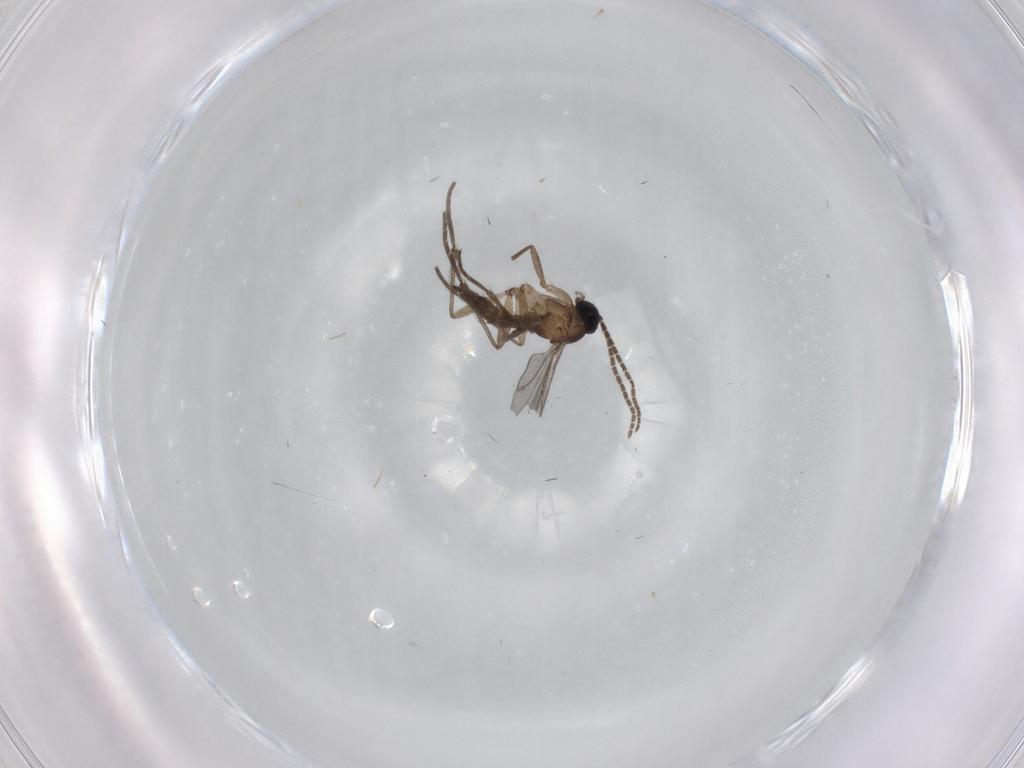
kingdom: Animalia
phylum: Arthropoda
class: Insecta
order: Diptera
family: Sciaridae
